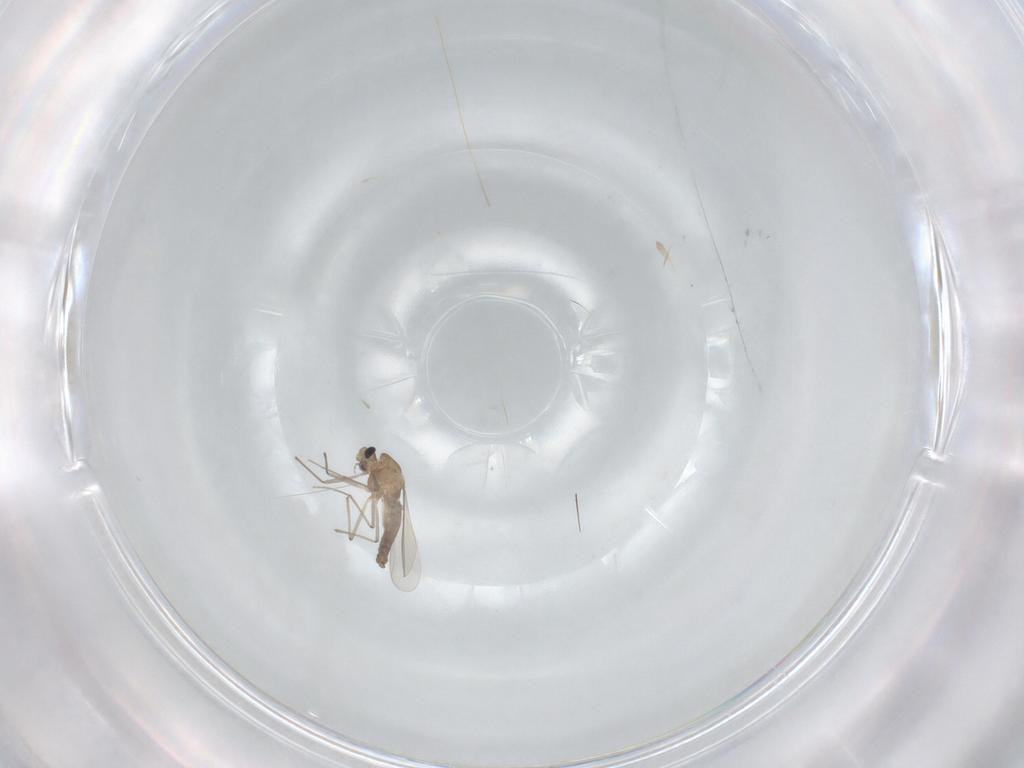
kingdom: Animalia
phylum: Arthropoda
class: Insecta
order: Diptera
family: Chironomidae
